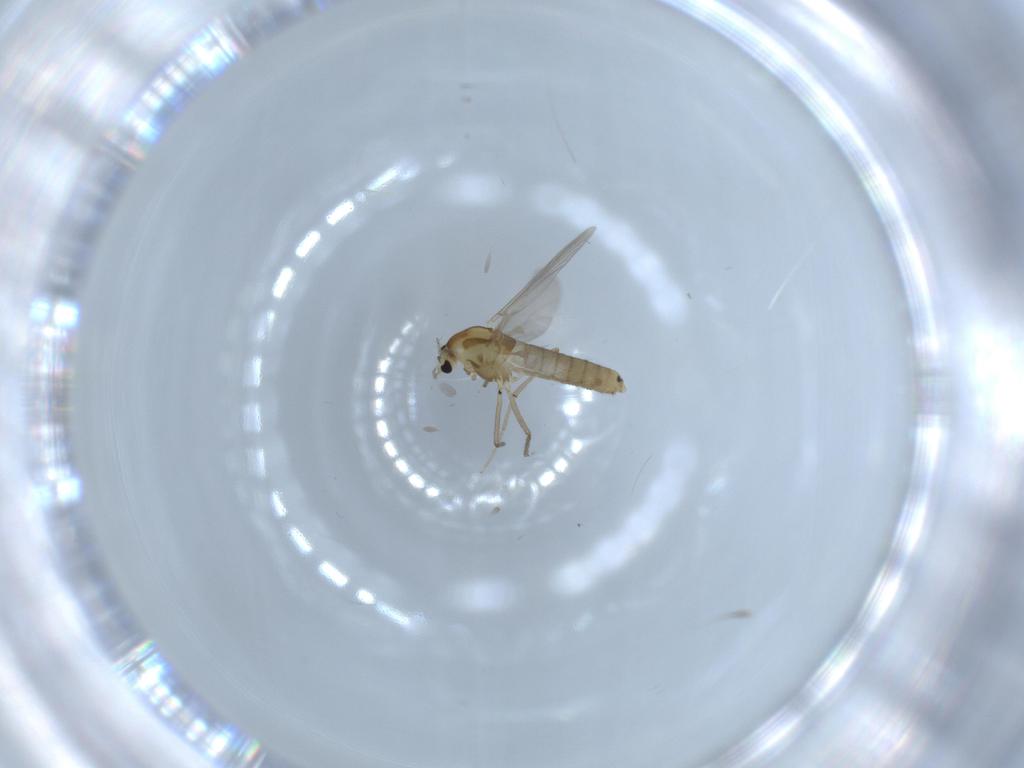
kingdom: Animalia
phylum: Arthropoda
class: Insecta
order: Diptera
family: Chironomidae
